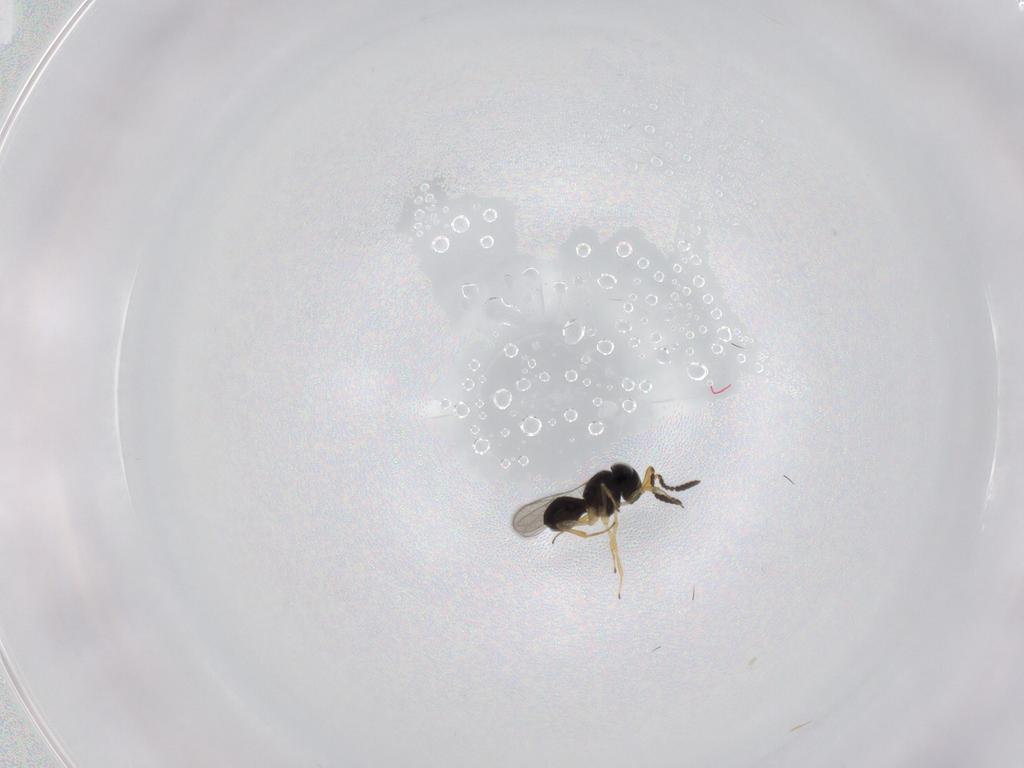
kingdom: Animalia
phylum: Arthropoda
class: Insecta
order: Hymenoptera
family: Scelionidae
